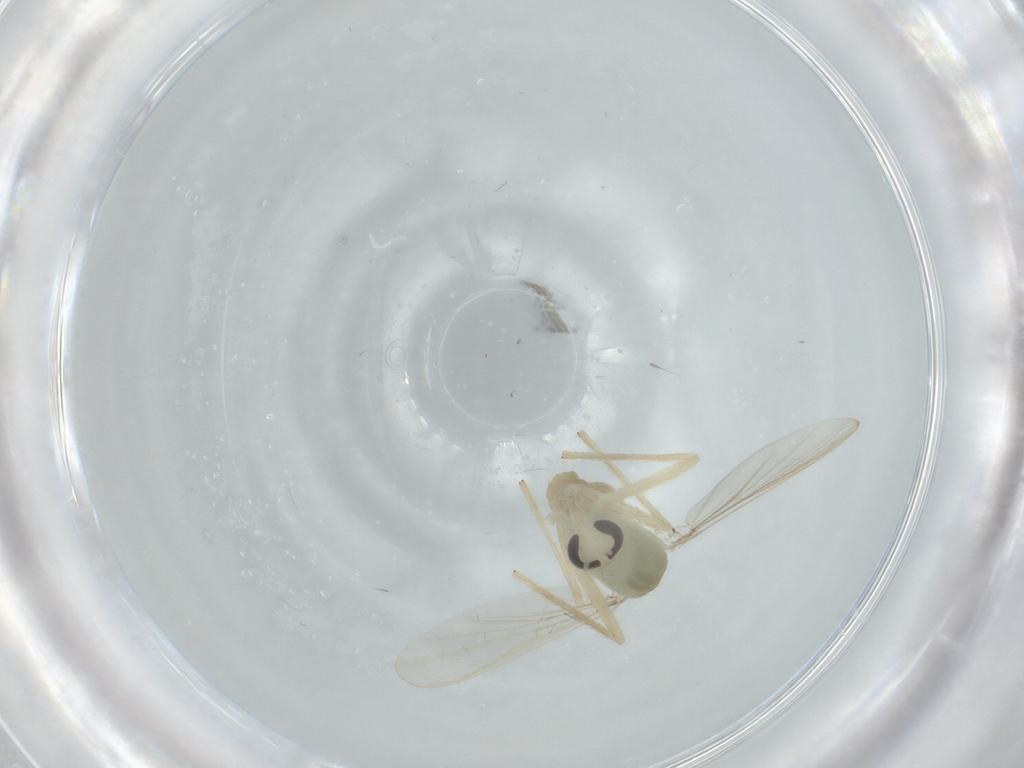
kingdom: Animalia
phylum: Arthropoda
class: Insecta
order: Diptera
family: Chironomidae
